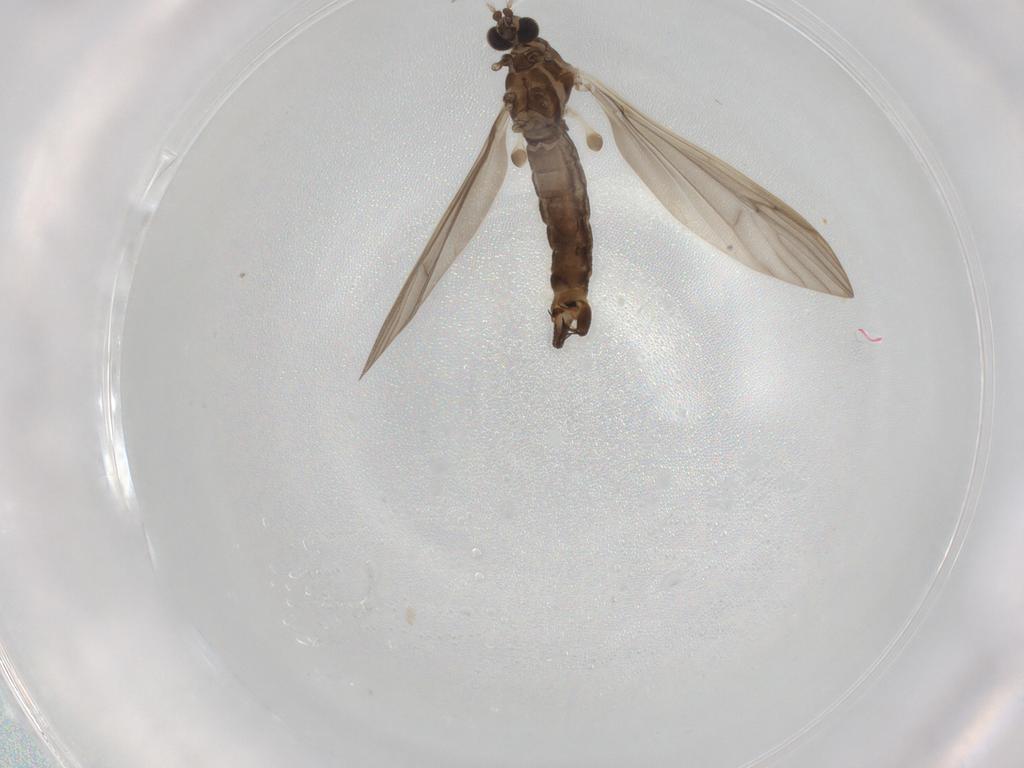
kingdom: Animalia
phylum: Arthropoda
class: Insecta
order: Diptera
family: Limoniidae
